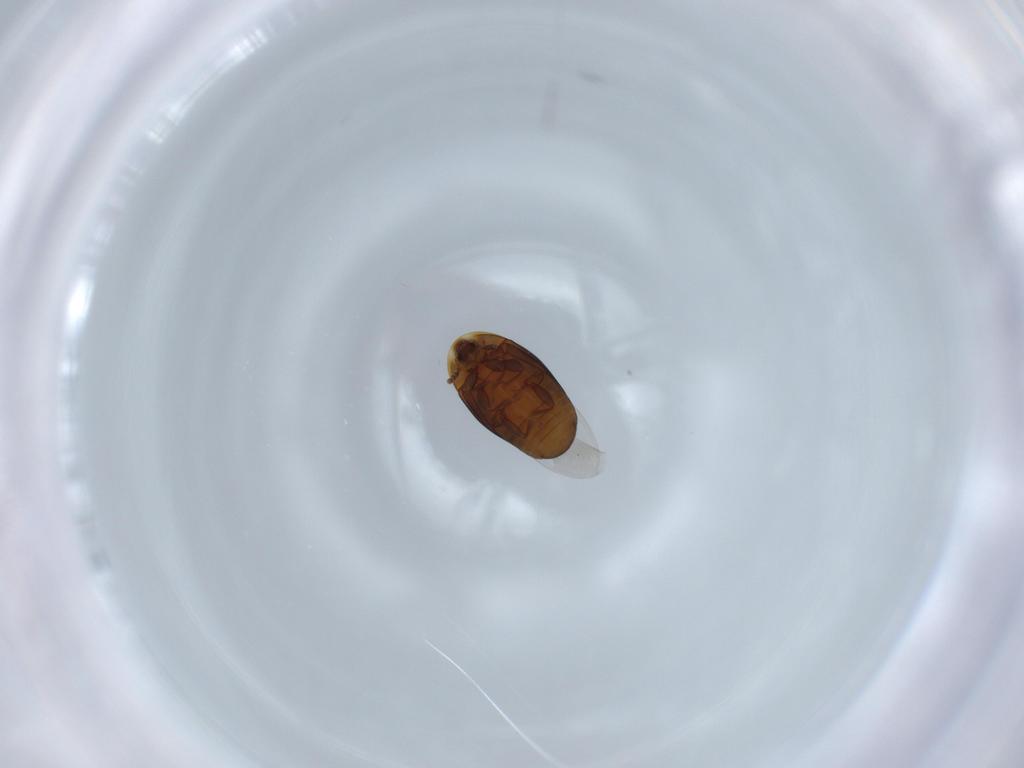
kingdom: Animalia
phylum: Arthropoda
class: Insecta
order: Coleoptera
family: Corylophidae
